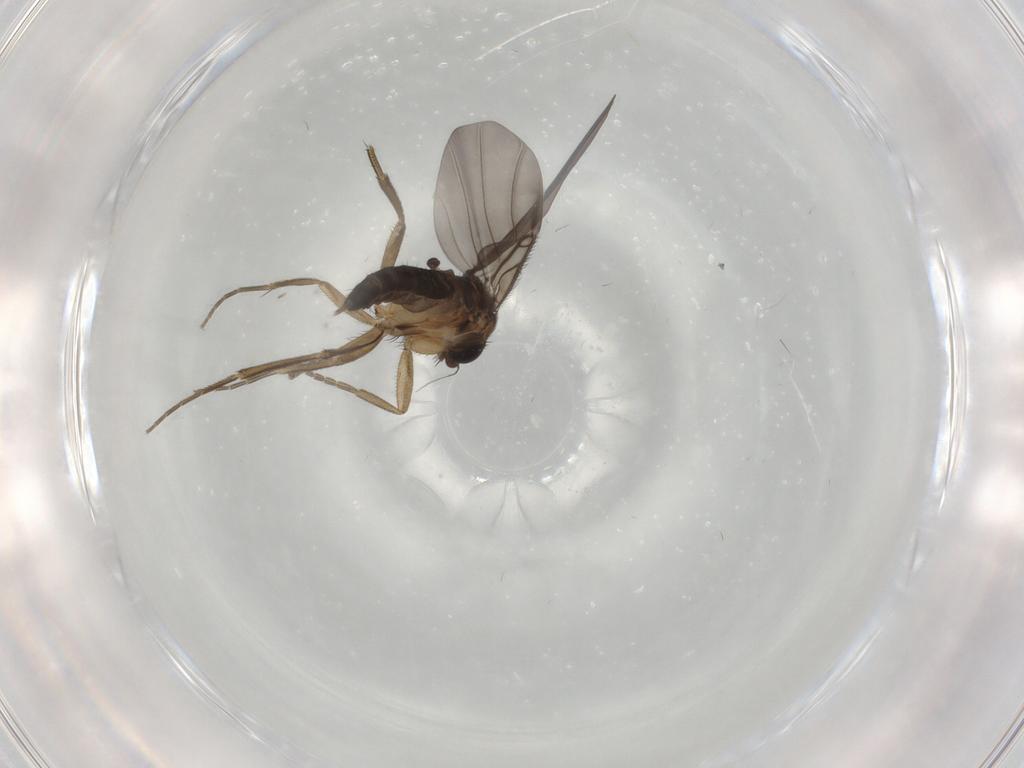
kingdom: Animalia
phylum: Arthropoda
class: Insecta
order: Diptera
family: Phoridae
